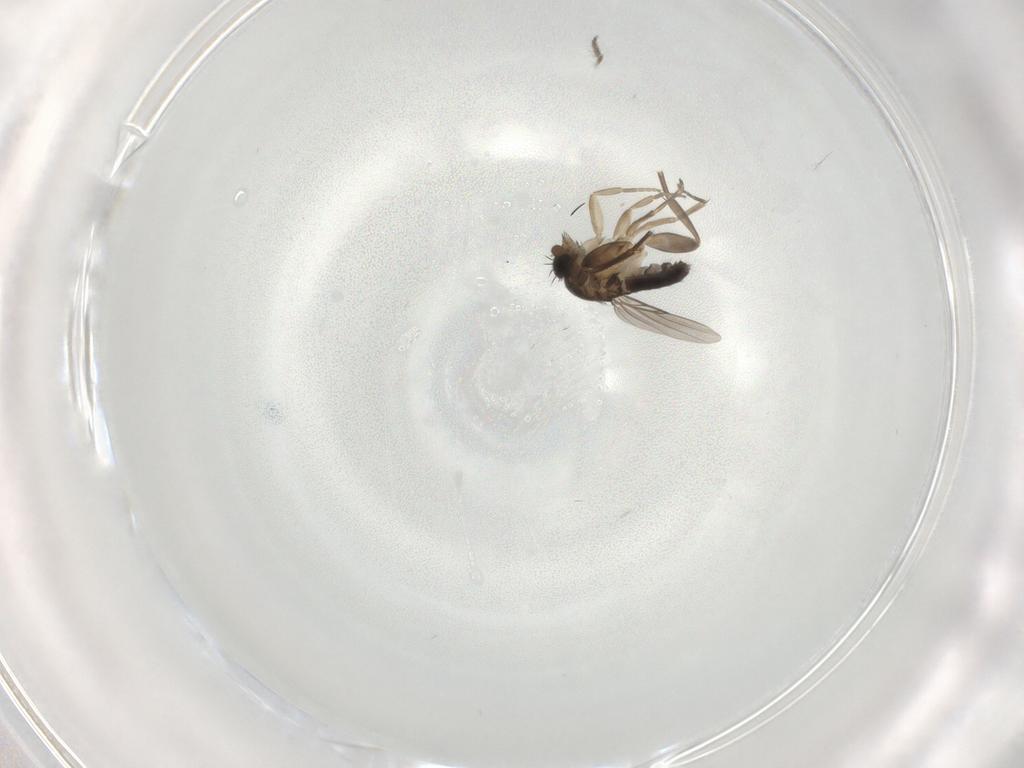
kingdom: Animalia
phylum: Arthropoda
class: Insecta
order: Diptera
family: Phoridae
